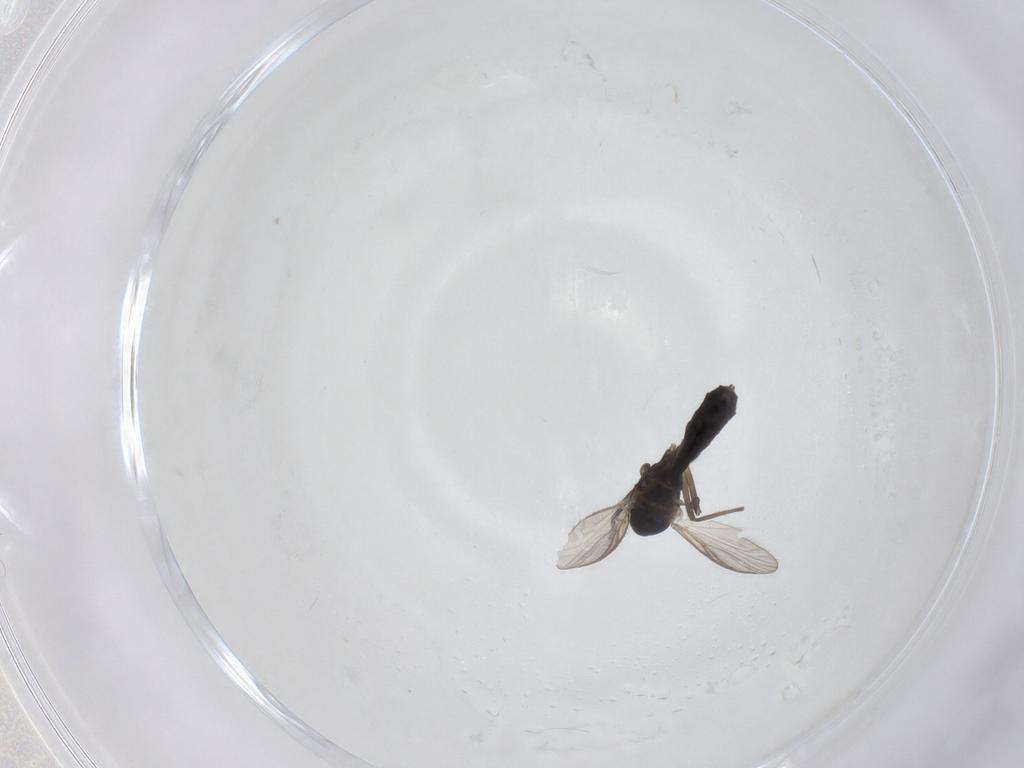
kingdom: Animalia
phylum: Arthropoda
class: Insecta
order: Diptera
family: Chironomidae
